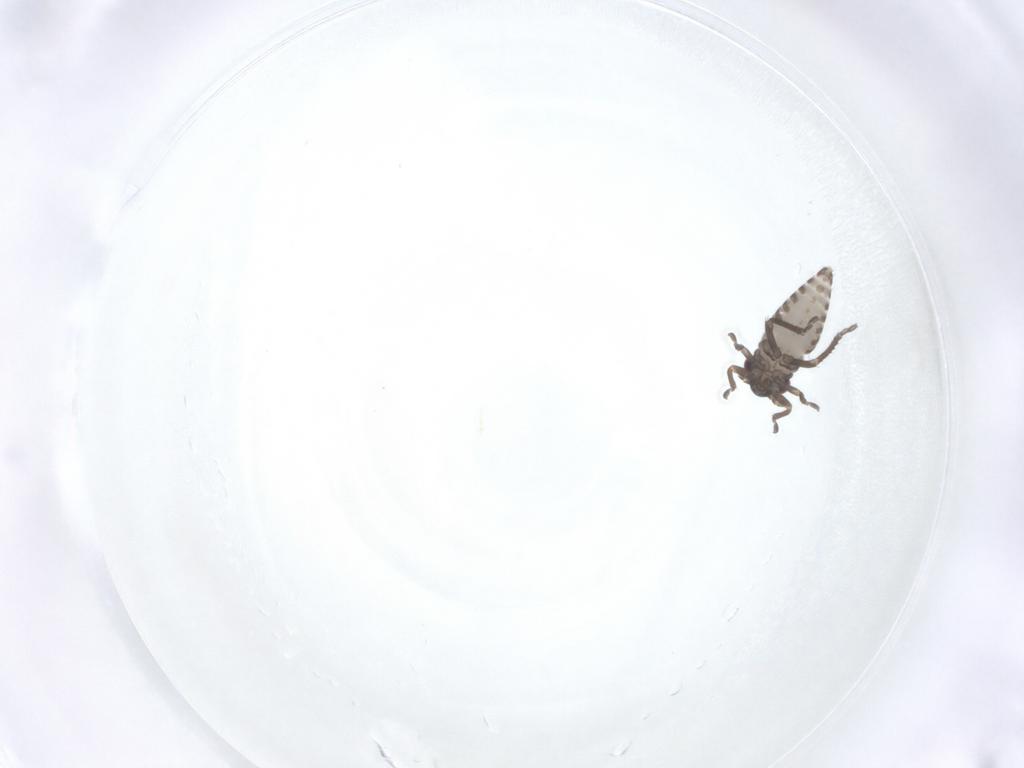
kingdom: Animalia
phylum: Arthropoda
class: Insecta
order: Hemiptera
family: Cicadellidae
